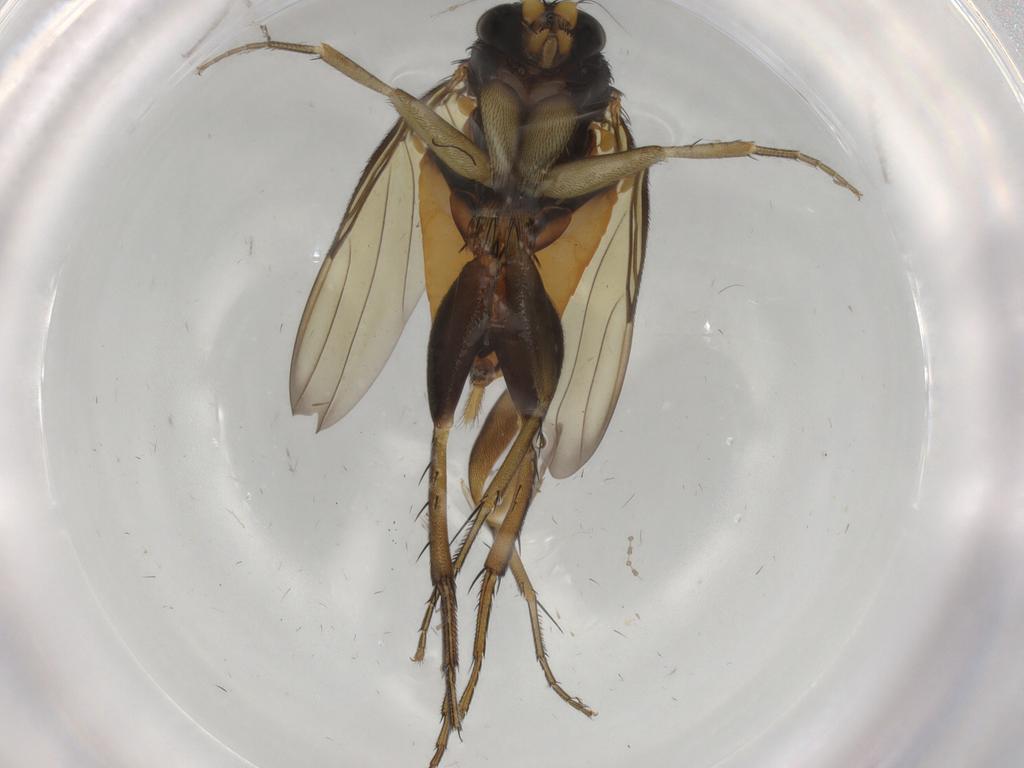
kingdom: Animalia
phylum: Arthropoda
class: Insecta
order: Diptera
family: Phoridae
